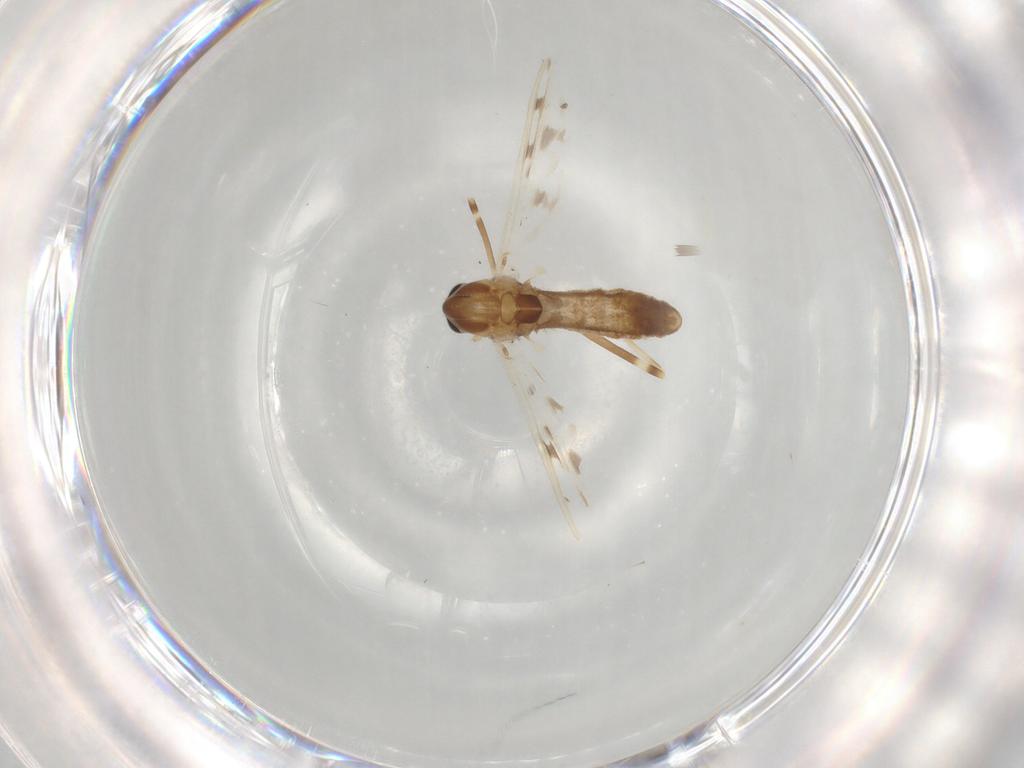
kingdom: Animalia
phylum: Arthropoda
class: Insecta
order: Diptera
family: Chironomidae
